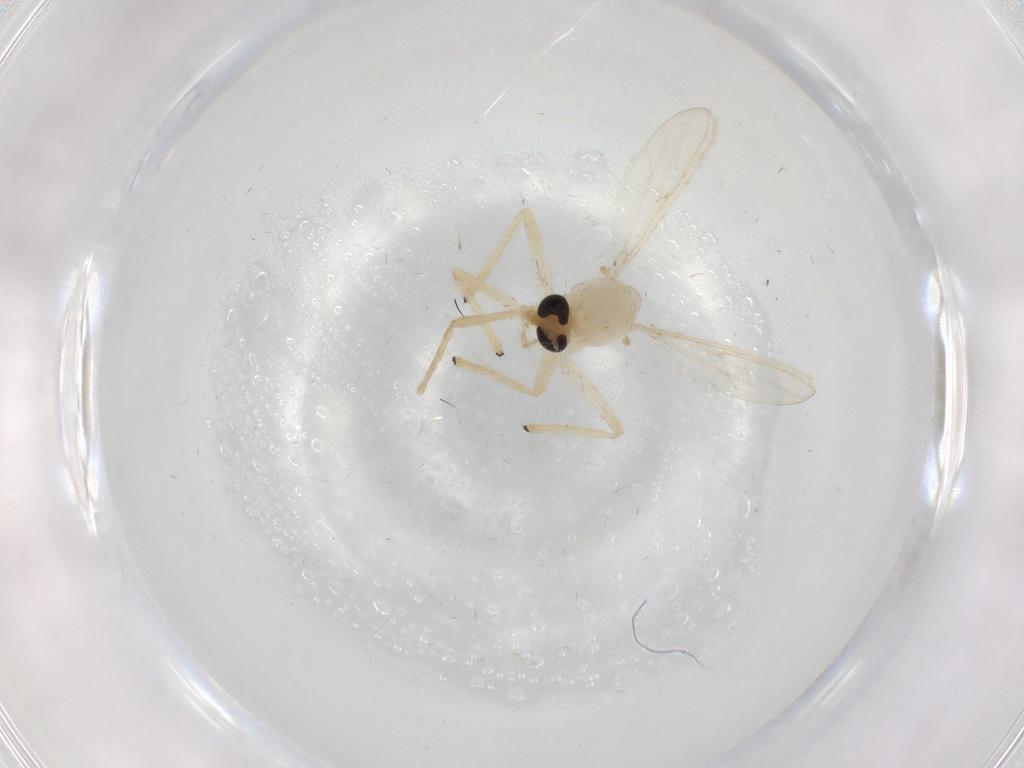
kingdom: Animalia
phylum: Arthropoda
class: Insecta
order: Diptera
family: Chironomidae
